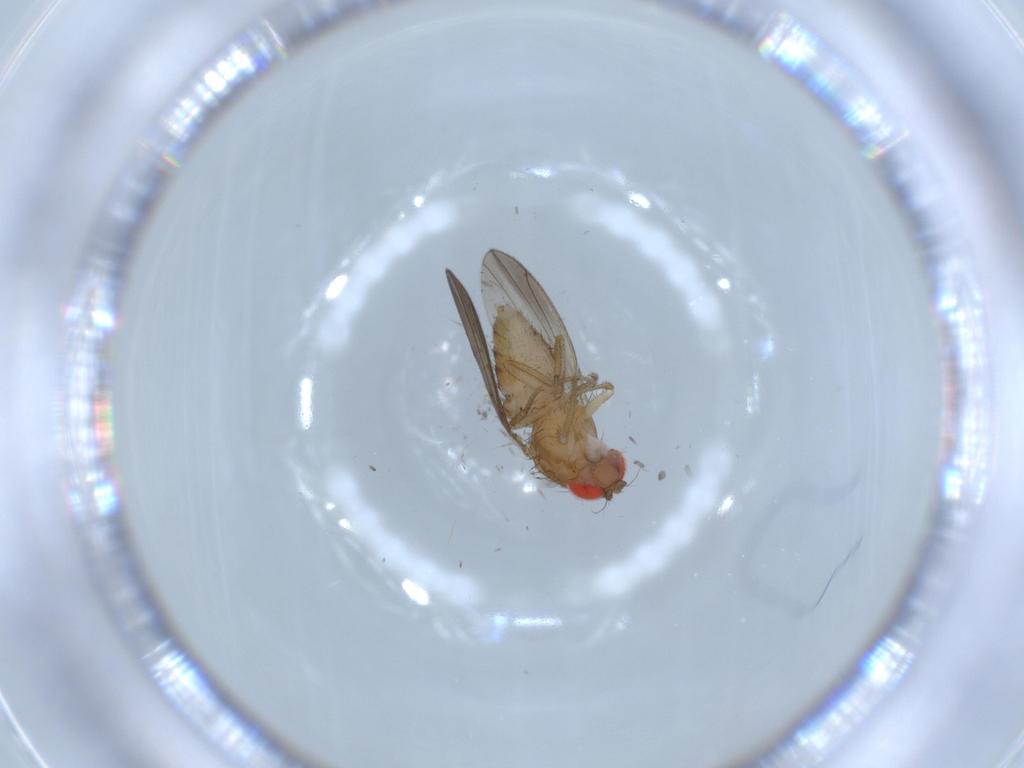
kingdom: Animalia
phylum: Arthropoda
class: Insecta
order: Diptera
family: Drosophilidae
